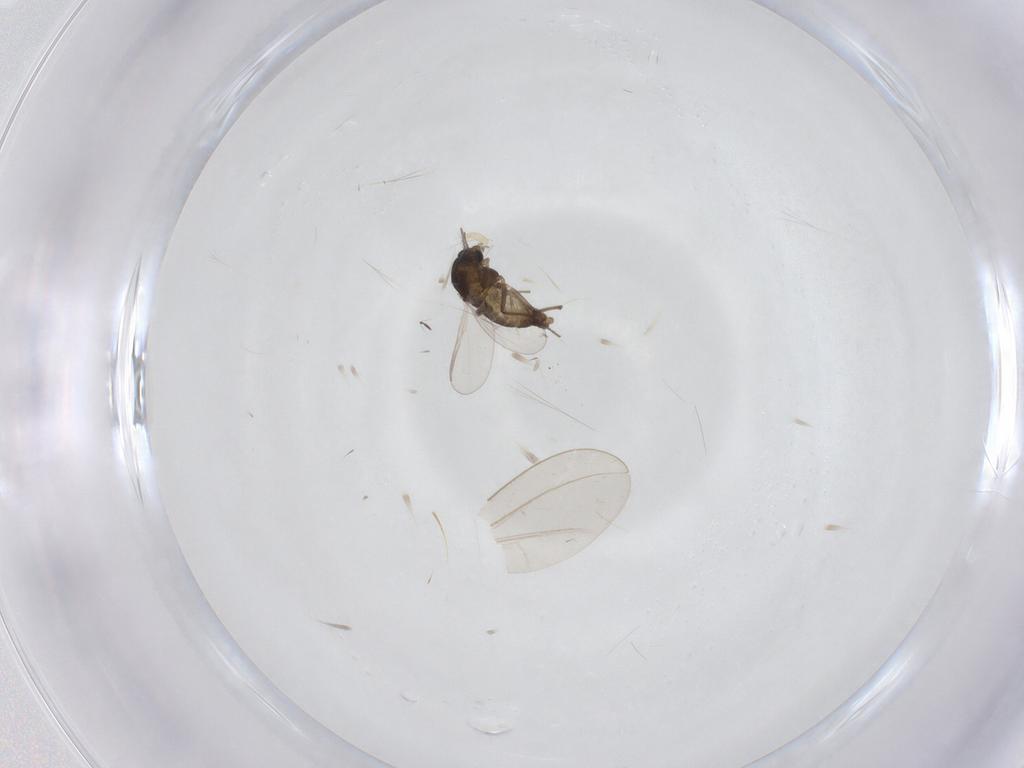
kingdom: Animalia
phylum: Arthropoda
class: Insecta
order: Diptera
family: Chironomidae
